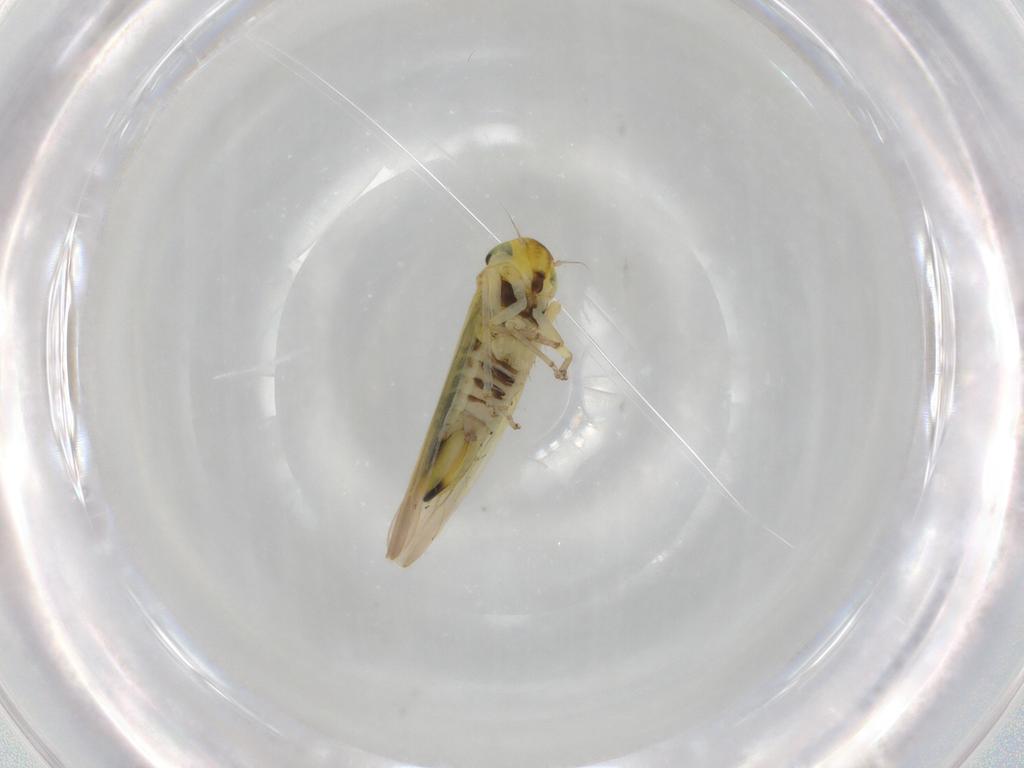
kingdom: Animalia
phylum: Arthropoda
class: Insecta
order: Hemiptera
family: Cicadellidae
